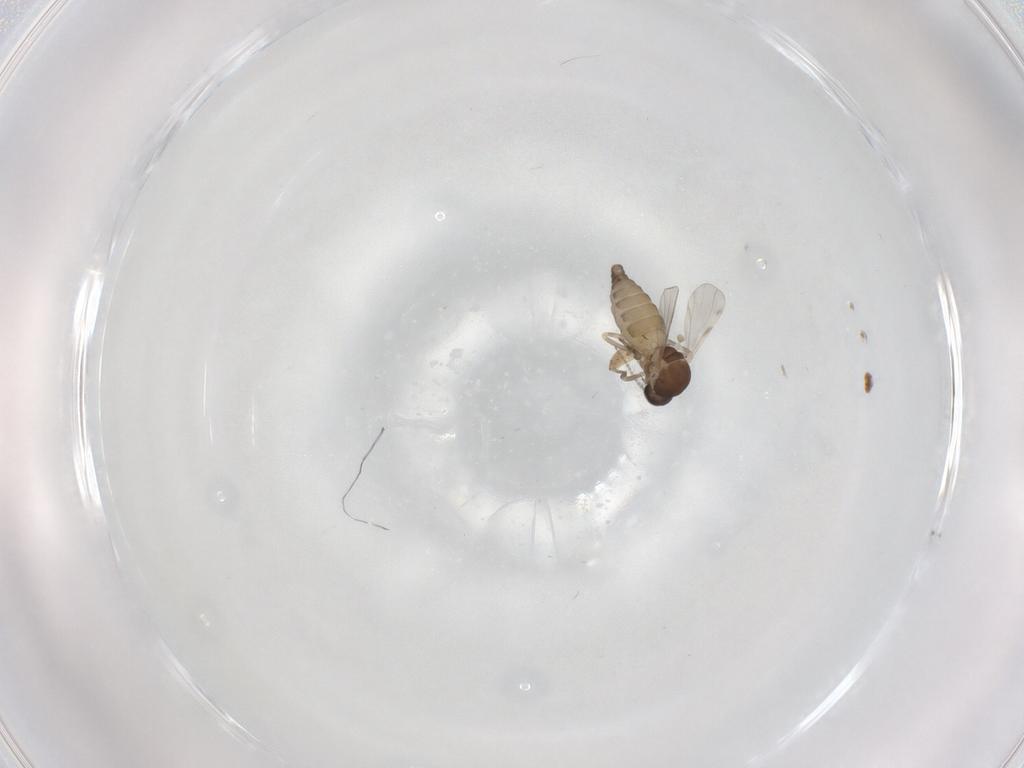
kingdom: Animalia
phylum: Arthropoda
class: Insecta
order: Diptera
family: Ceratopogonidae
